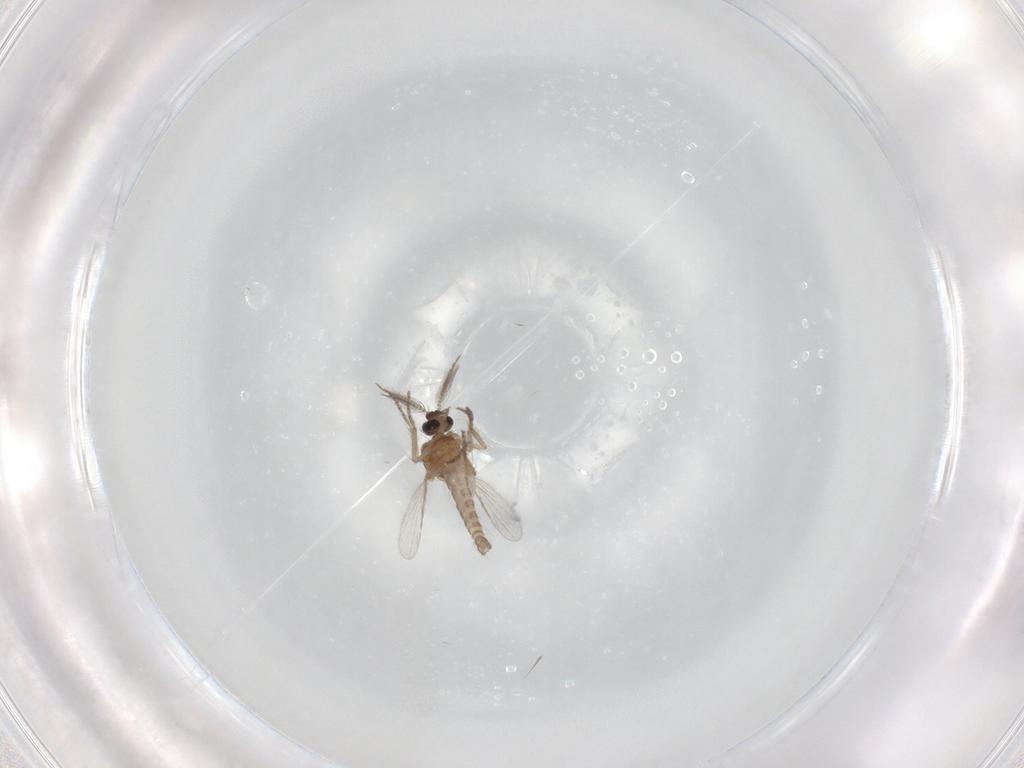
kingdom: Animalia
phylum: Arthropoda
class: Insecta
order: Diptera
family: Chironomidae
